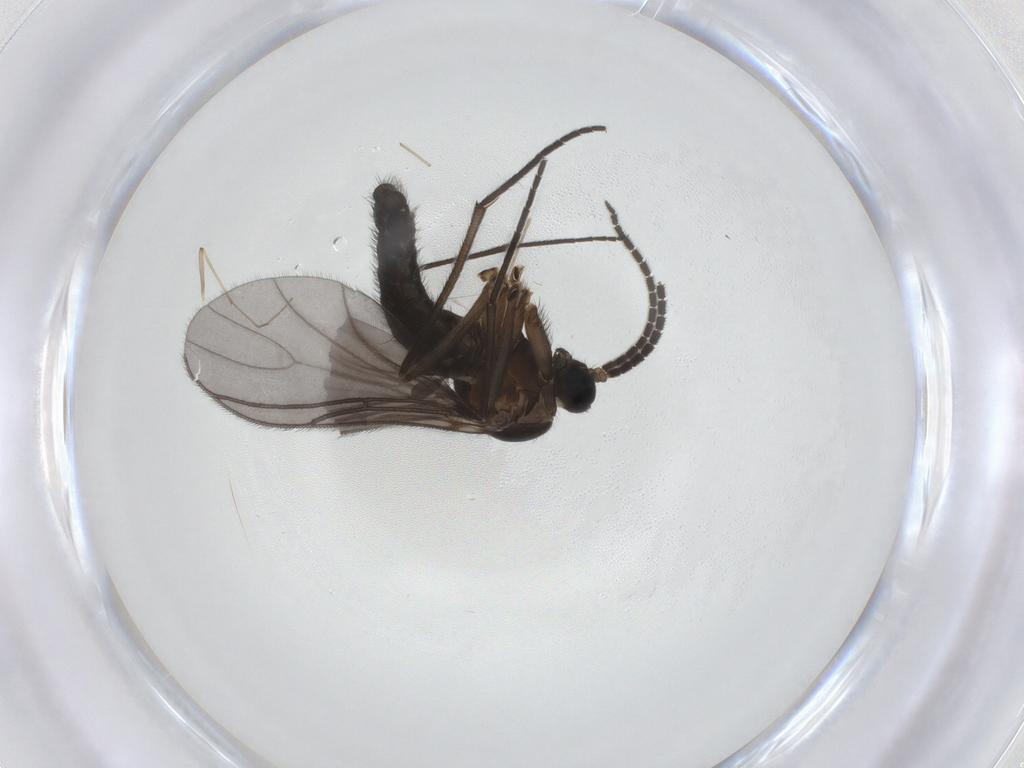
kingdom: Animalia
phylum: Arthropoda
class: Insecta
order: Diptera
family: Sciaridae
